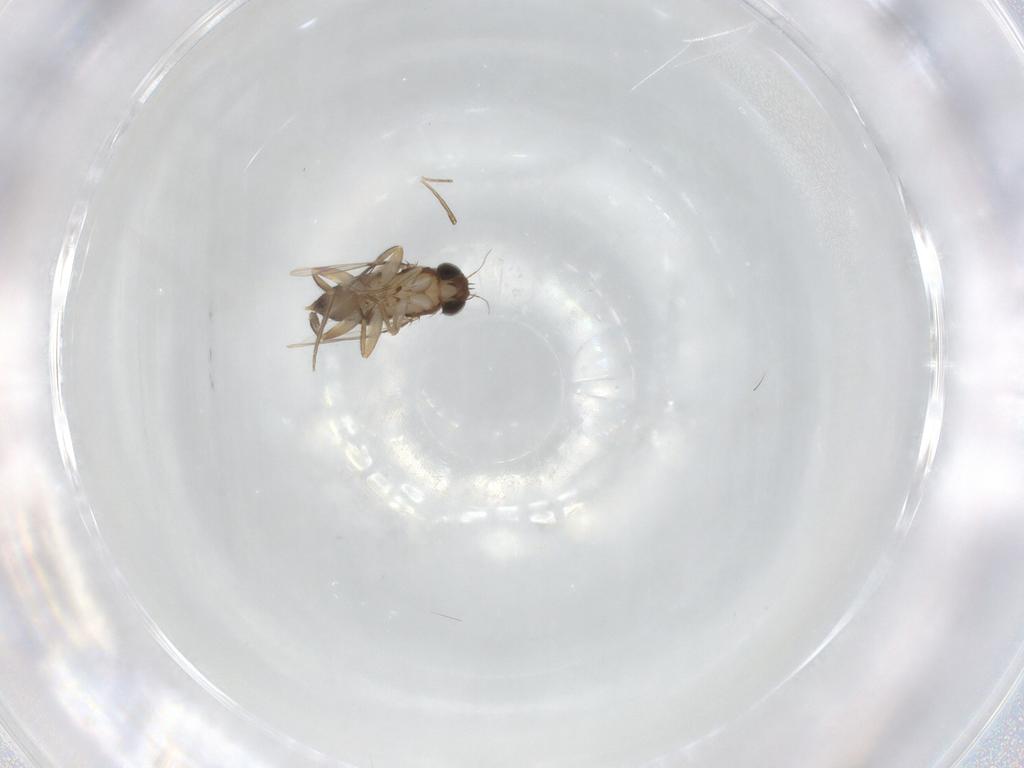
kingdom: Animalia
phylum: Arthropoda
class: Insecta
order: Diptera
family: Phoridae
